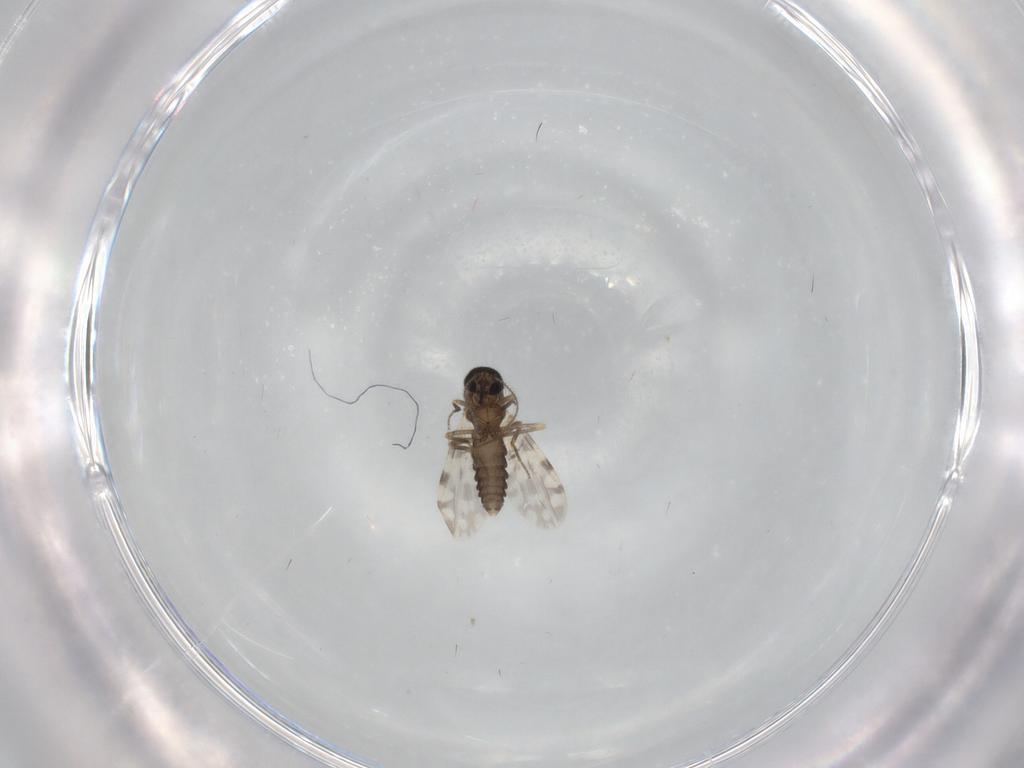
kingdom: Animalia
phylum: Arthropoda
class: Insecta
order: Diptera
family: Ceratopogonidae
